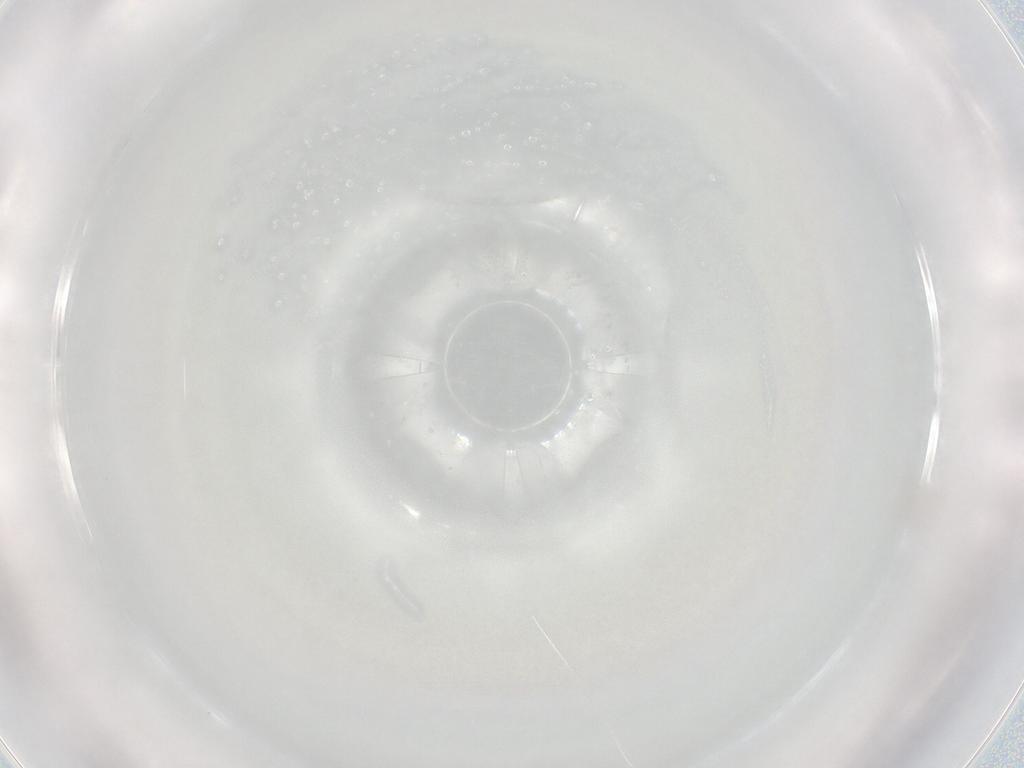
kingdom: Animalia
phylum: Arthropoda
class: Arachnida
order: Trombidiformes
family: Cunaxidae
